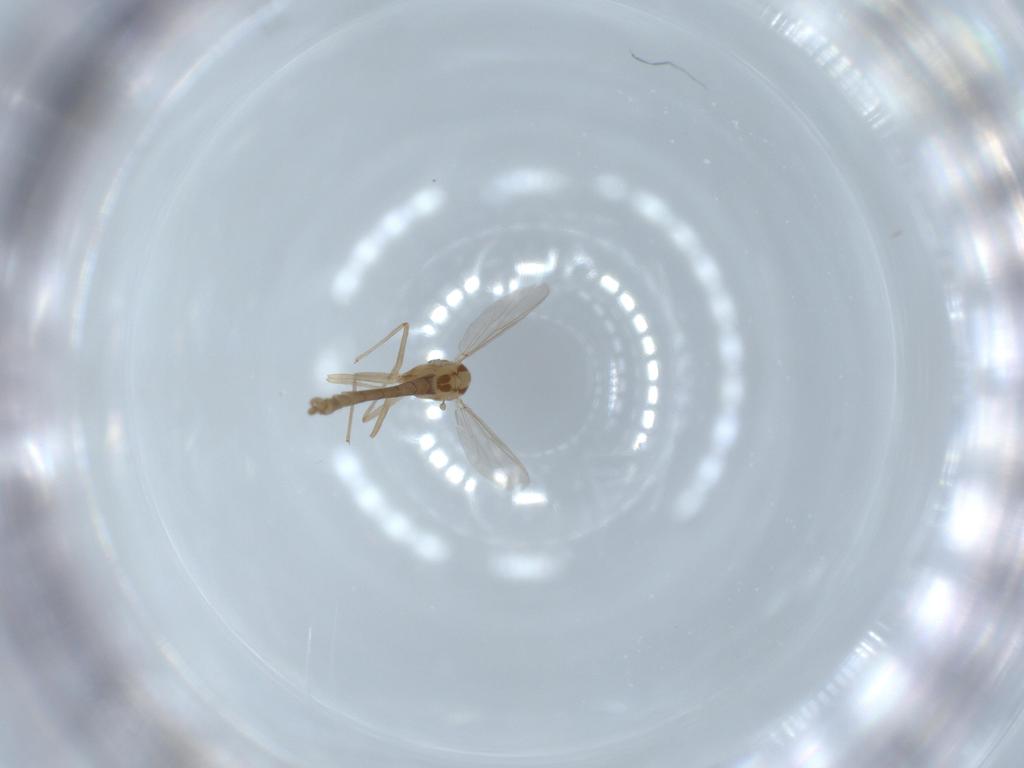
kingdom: Animalia
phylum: Arthropoda
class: Insecta
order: Diptera
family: Chironomidae
